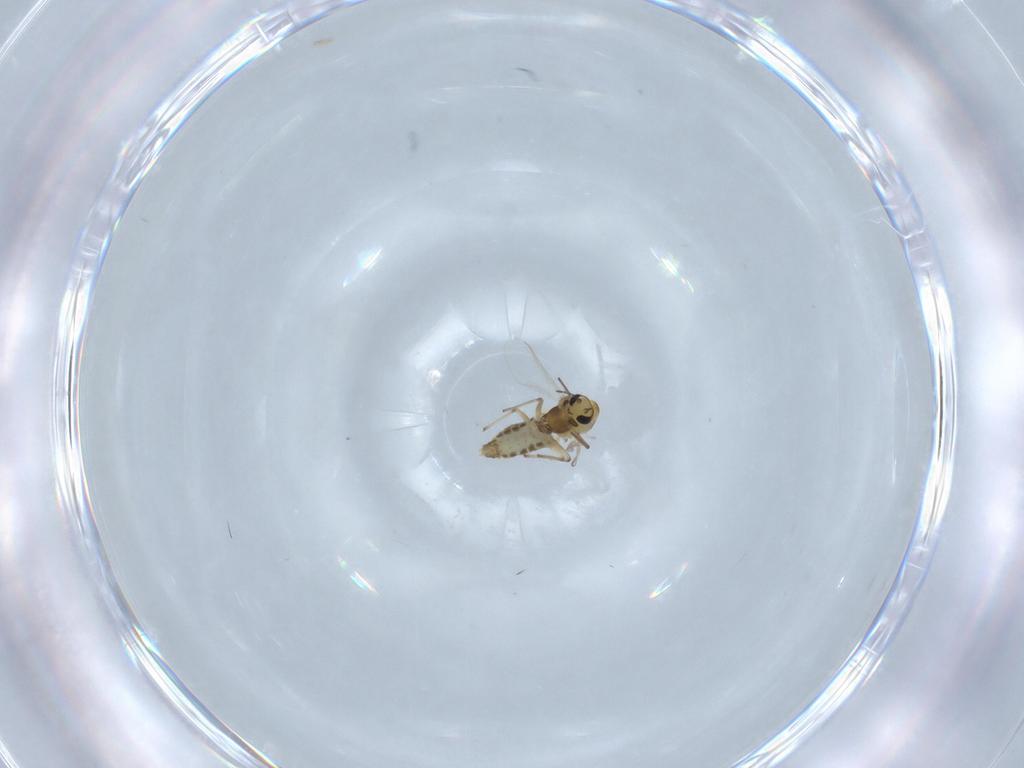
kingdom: Animalia
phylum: Arthropoda
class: Insecta
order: Diptera
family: Chironomidae
